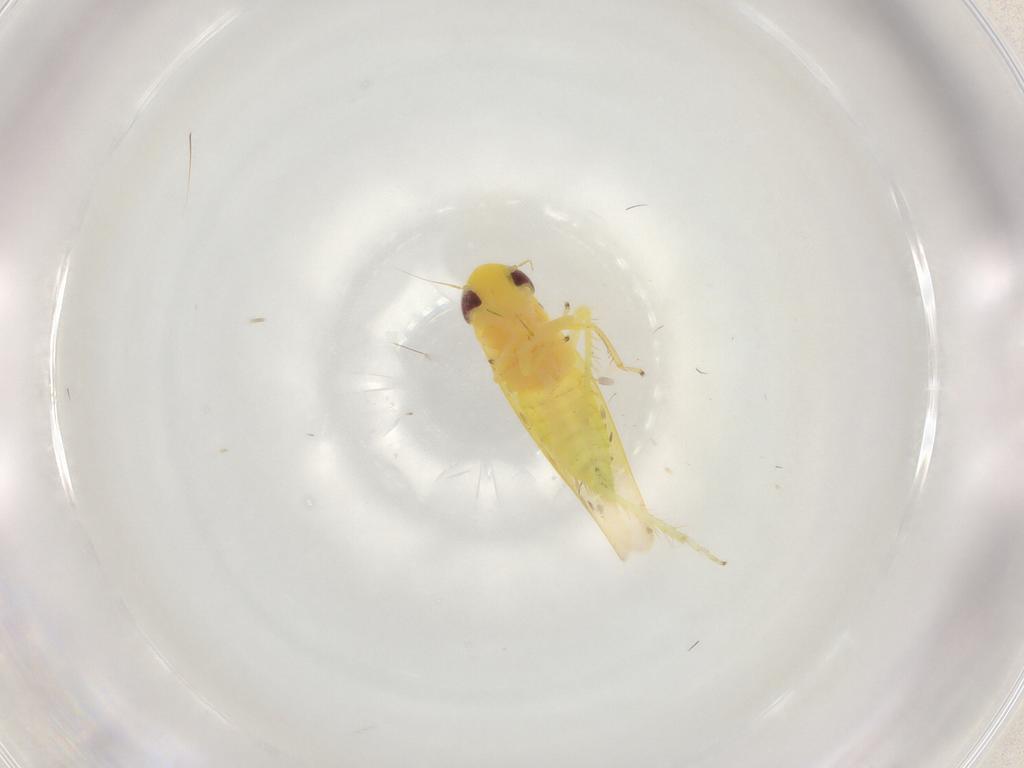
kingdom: Animalia
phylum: Arthropoda
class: Insecta
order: Hemiptera
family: Cicadellidae
